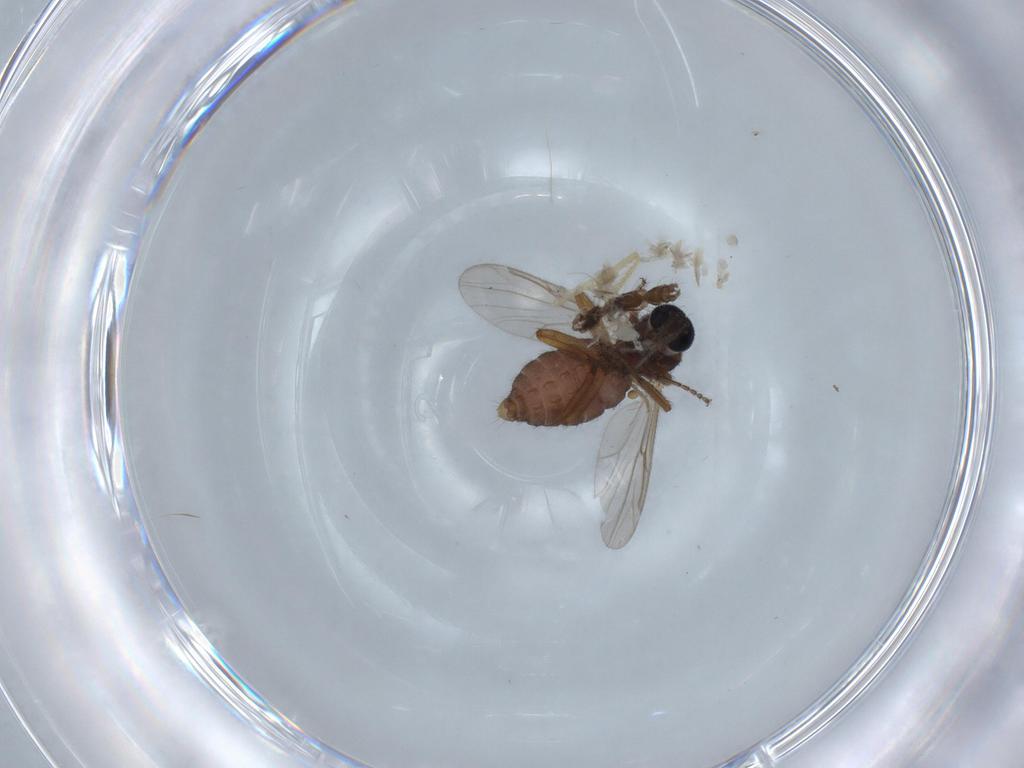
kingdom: Animalia
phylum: Arthropoda
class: Insecta
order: Diptera
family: Ceratopogonidae
